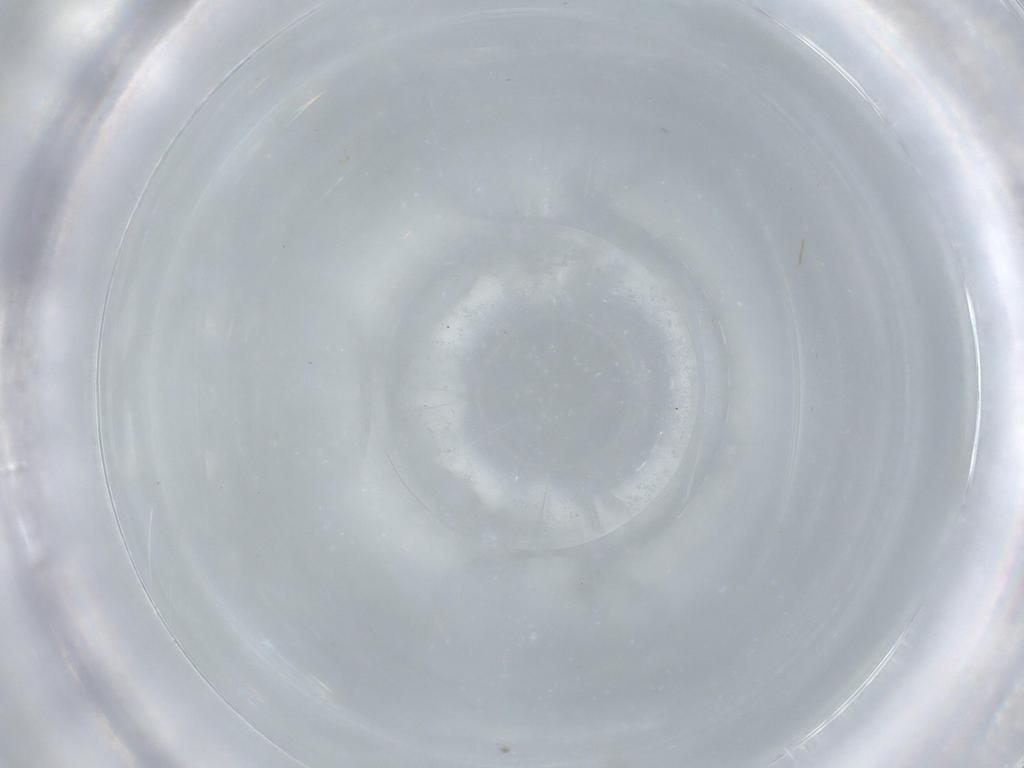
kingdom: Animalia
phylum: Arthropoda
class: Insecta
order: Diptera
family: Chironomidae
